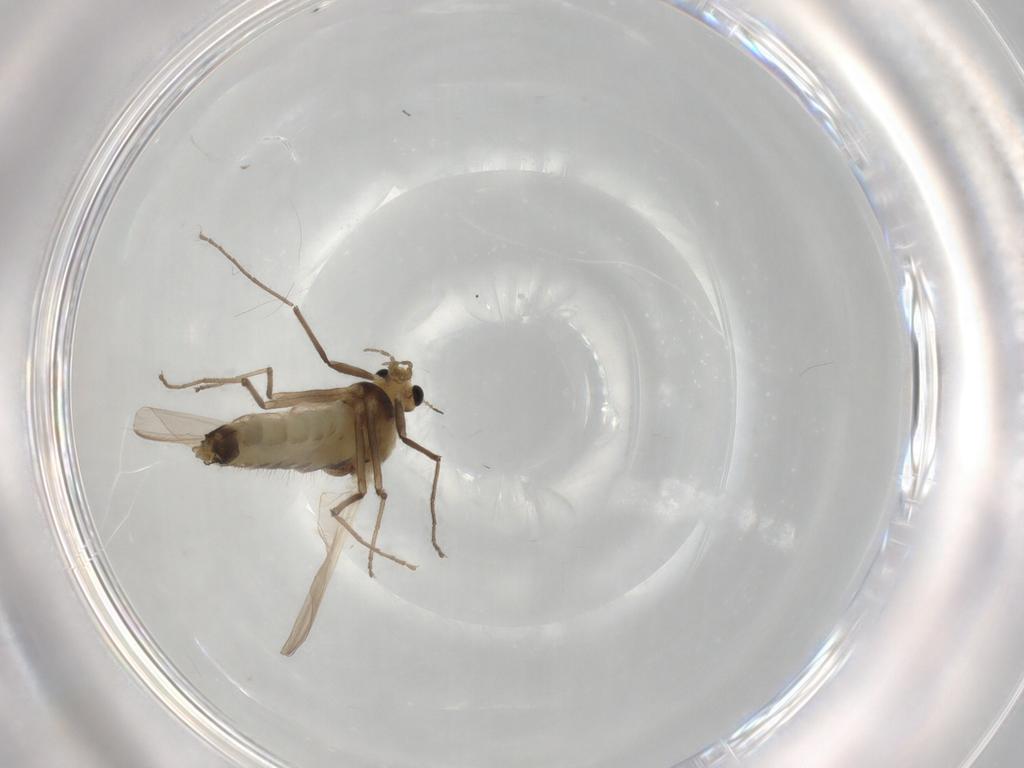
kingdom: Animalia
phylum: Arthropoda
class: Insecta
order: Diptera
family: Chironomidae
